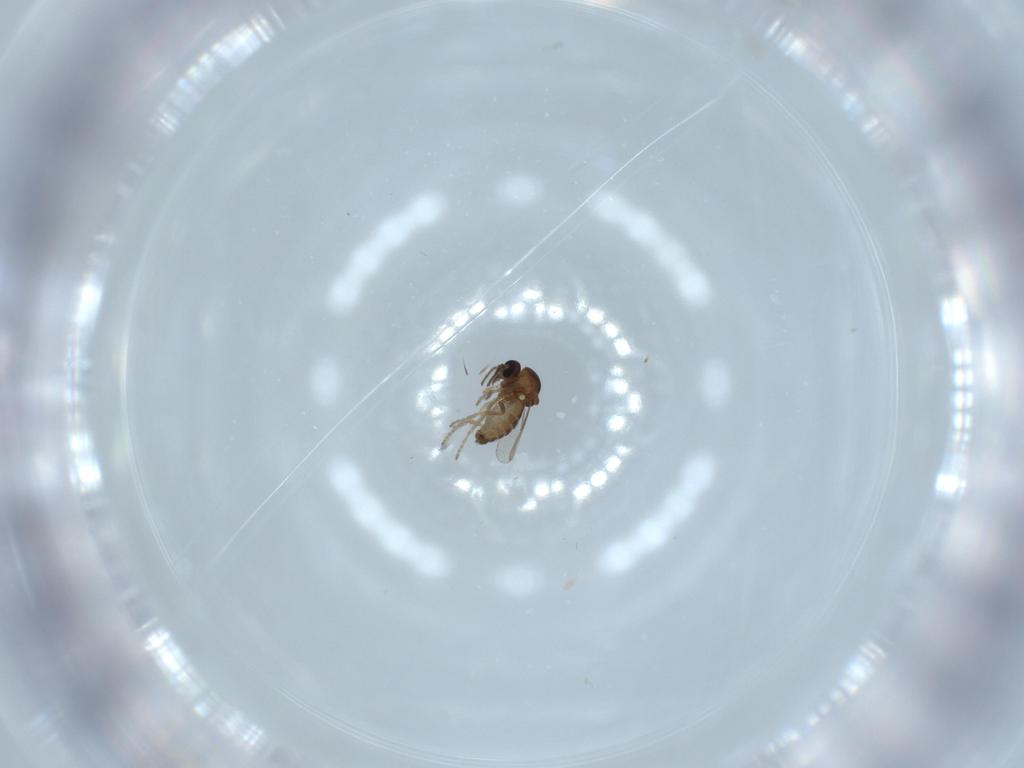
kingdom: Animalia
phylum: Arthropoda
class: Insecta
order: Diptera
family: Ceratopogonidae
